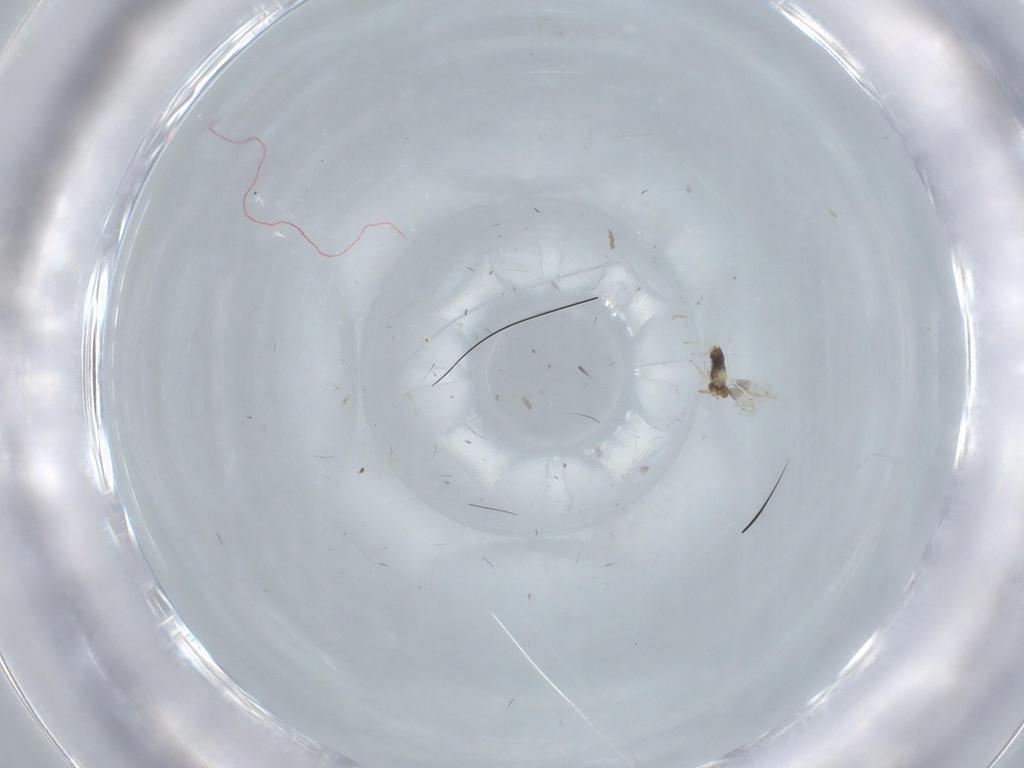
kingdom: Animalia
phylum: Arthropoda
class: Insecta
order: Hymenoptera
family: Aphelinidae
